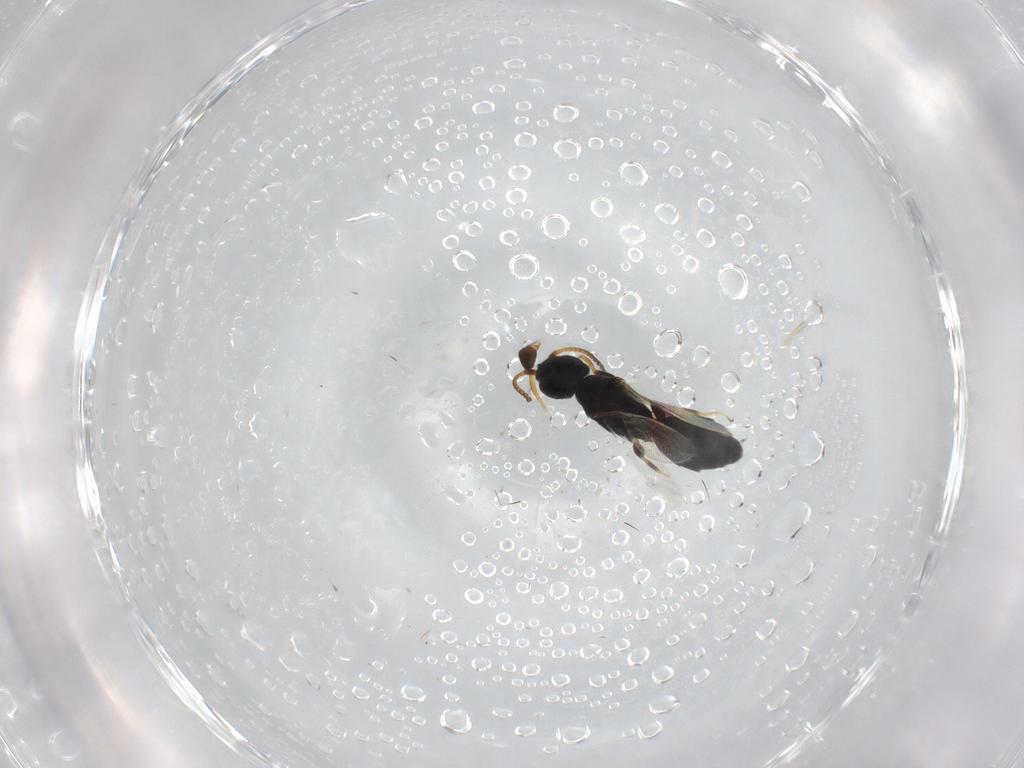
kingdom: Animalia
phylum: Arthropoda
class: Insecta
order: Hymenoptera
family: Bethylidae
